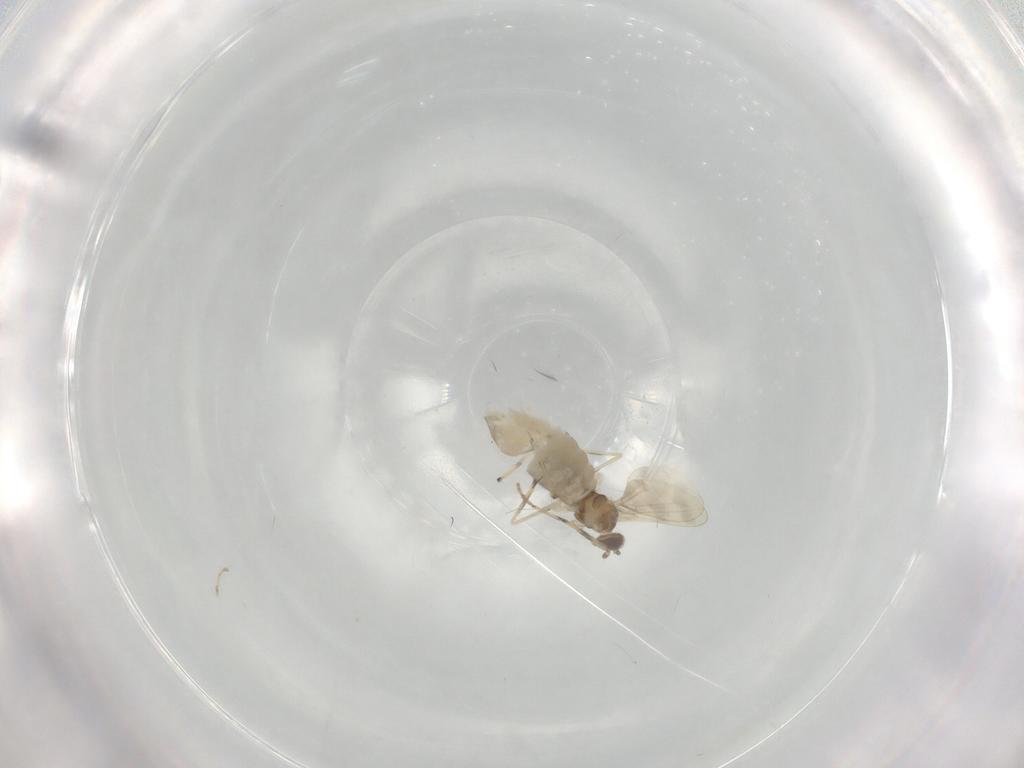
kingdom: Animalia
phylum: Arthropoda
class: Insecta
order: Diptera
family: Cecidomyiidae
